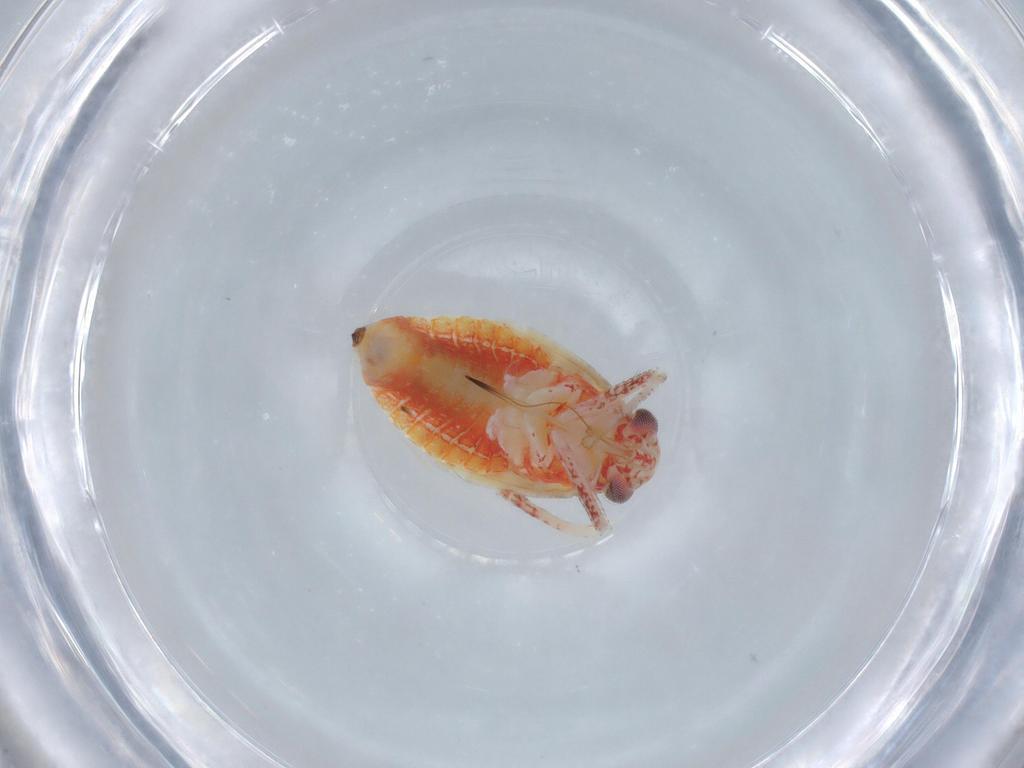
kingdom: Animalia
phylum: Arthropoda
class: Insecta
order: Hemiptera
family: Miridae
